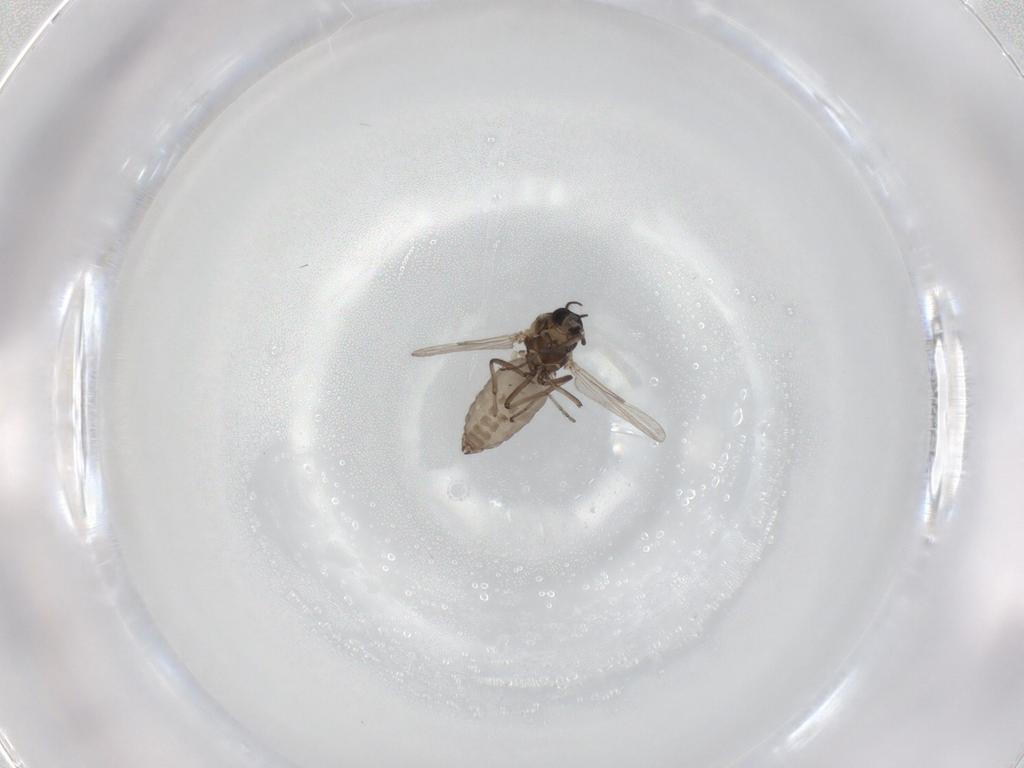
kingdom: Animalia
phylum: Arthropoda
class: Insecta
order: Diptera
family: Ceratopogonidae
